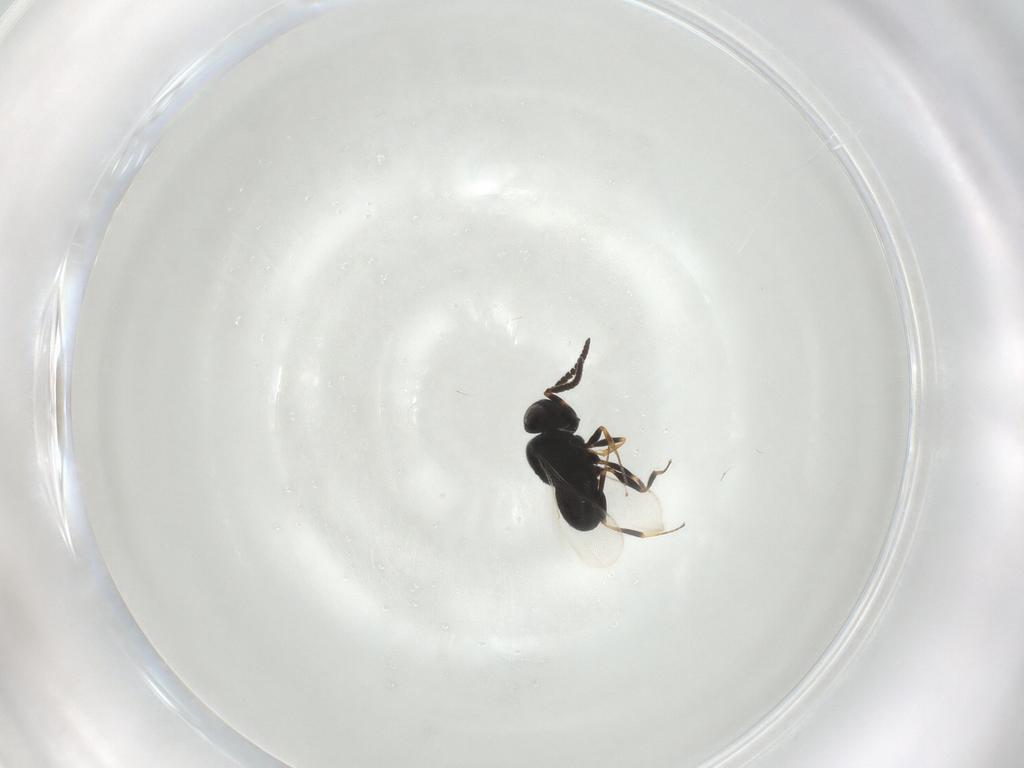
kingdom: Animalia
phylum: Arthropoda
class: Insecta
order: Hymenoptera
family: Scelionidae
